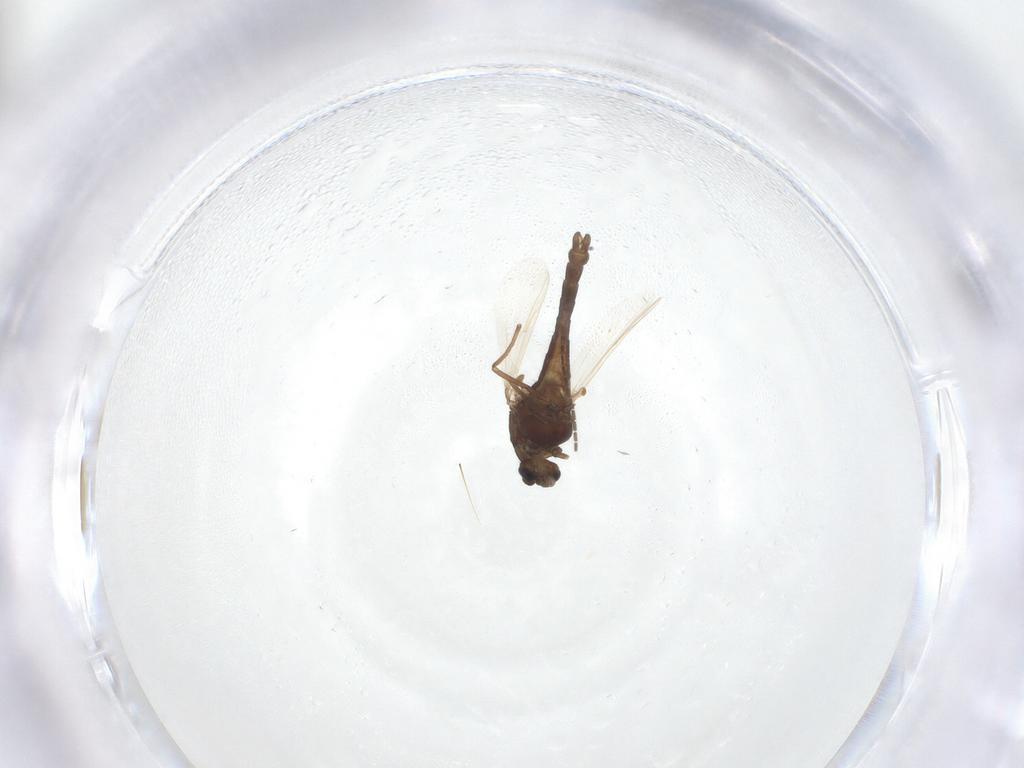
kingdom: Animalia
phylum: Arthropoda
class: Insecta
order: Diptera
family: Chironomidae
